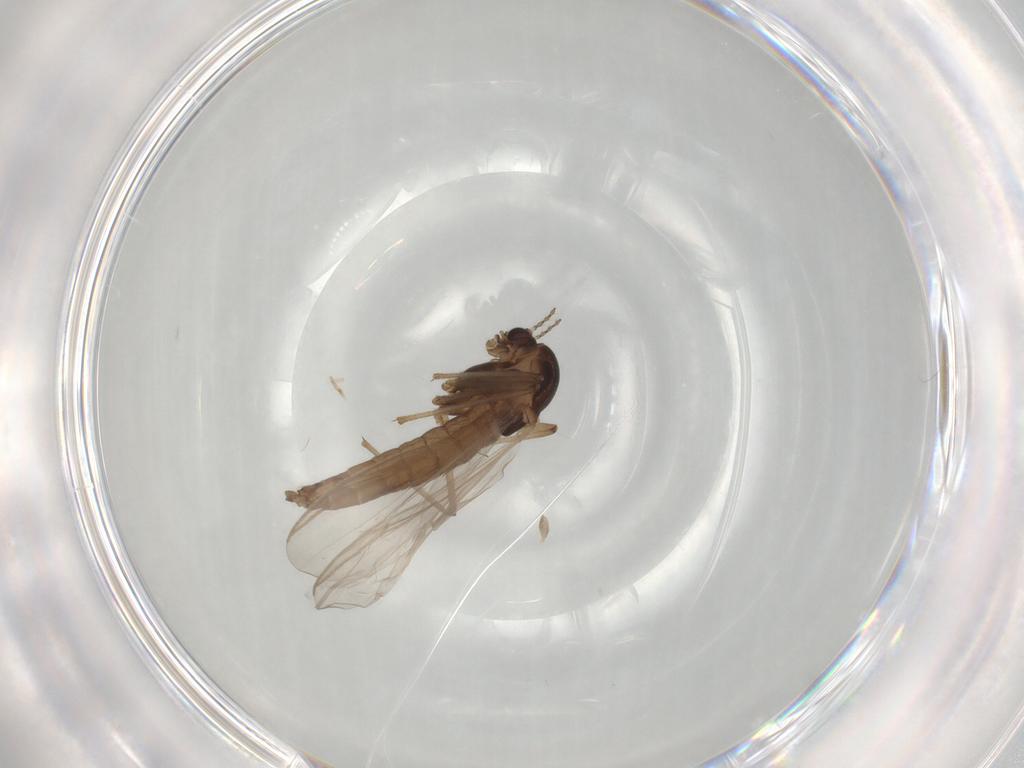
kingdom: Animalia
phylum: Arthropoda
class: Insecta
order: Diptera
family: Chironomidae
